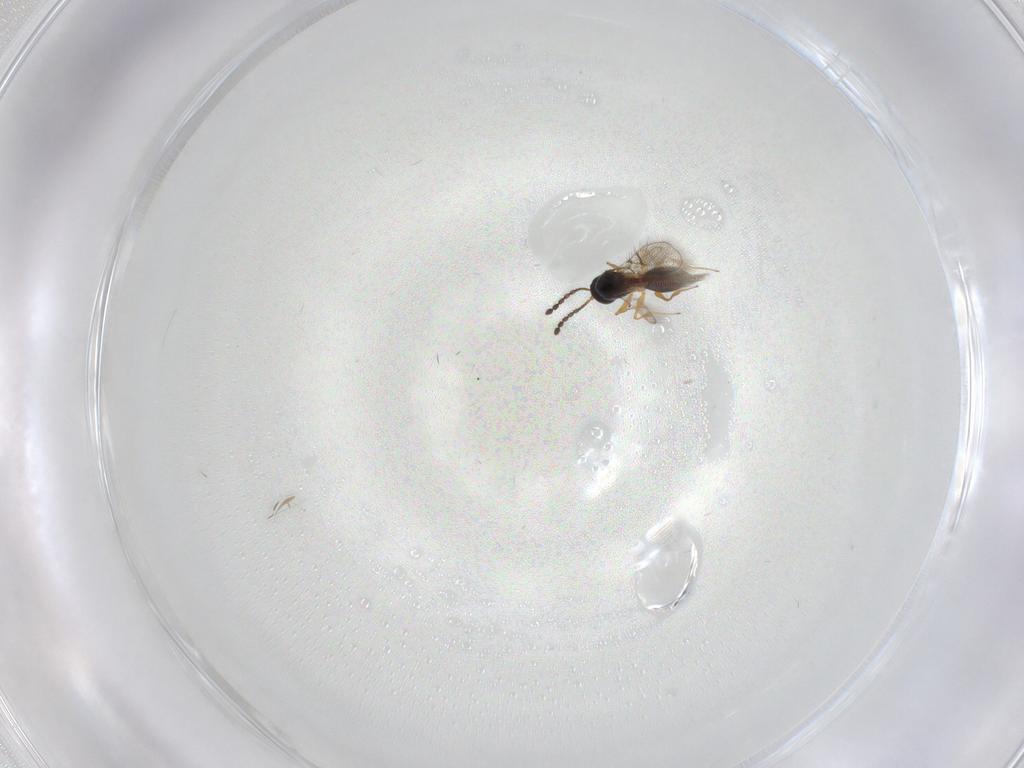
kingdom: Animalia
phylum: Arthropoda
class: Insecta
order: Hymenoptera
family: Figitidae
